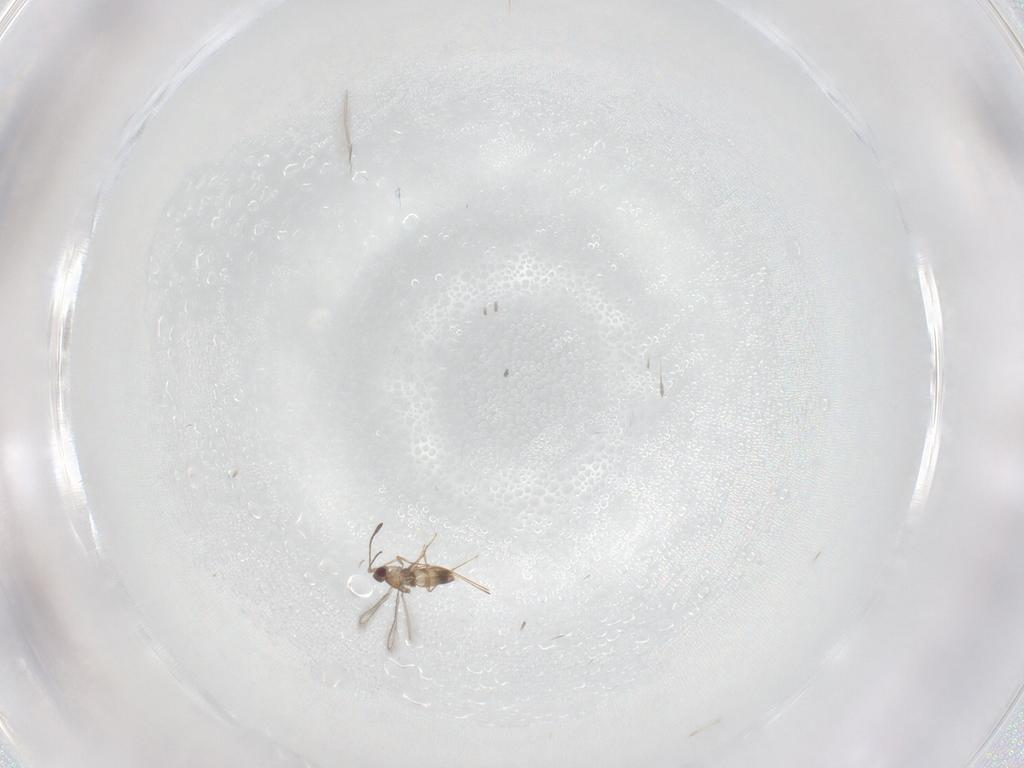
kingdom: Animalia
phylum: Arthropoda
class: Insecta
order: Hymenoptera
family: Mymaridae
